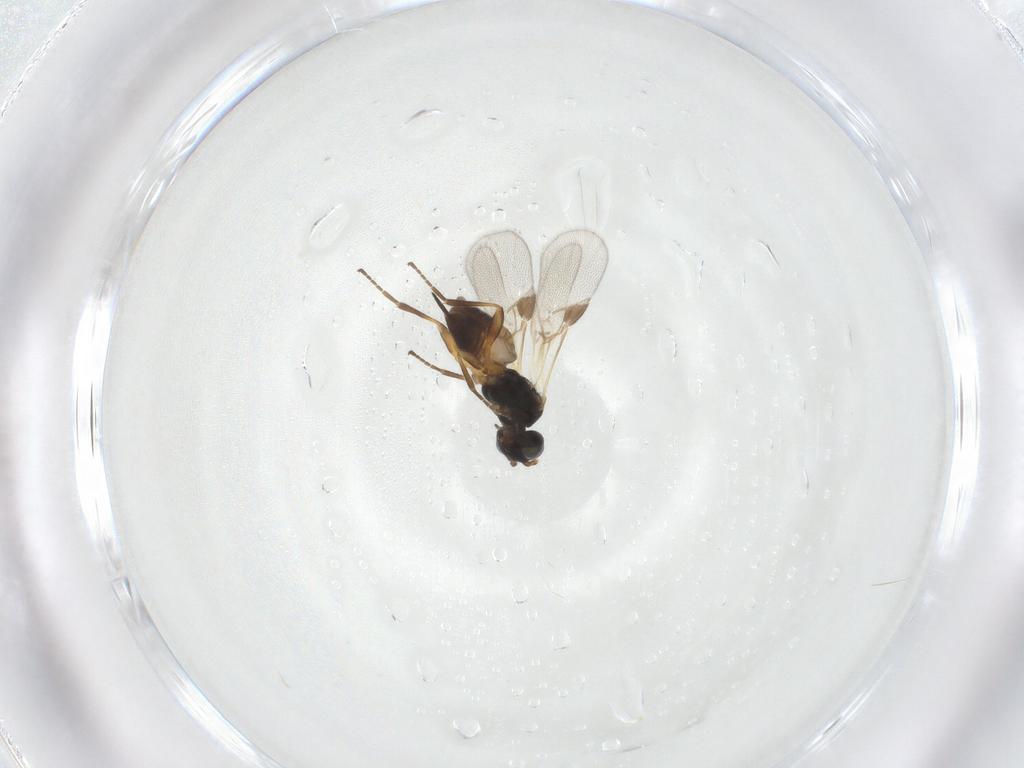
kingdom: Animalia
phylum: Arthropoda
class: Insecta
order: Hymenoptera
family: Braconidae
